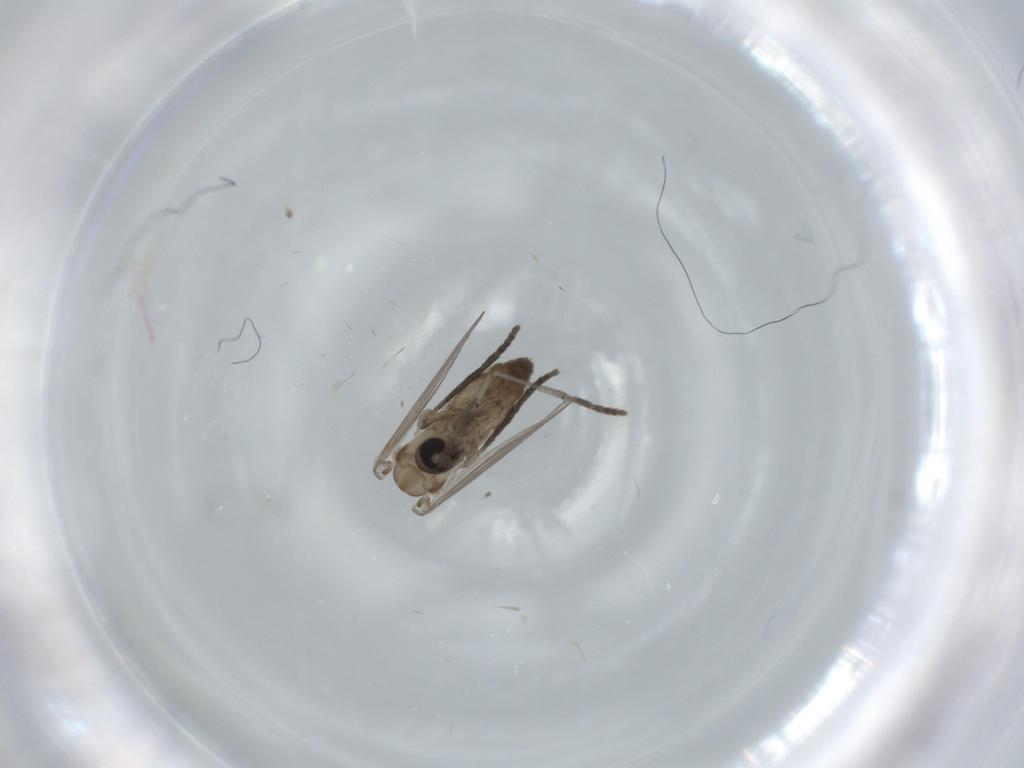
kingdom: Animalia
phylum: Arthropoda
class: Insecta
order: Diptera
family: Psychodidae
